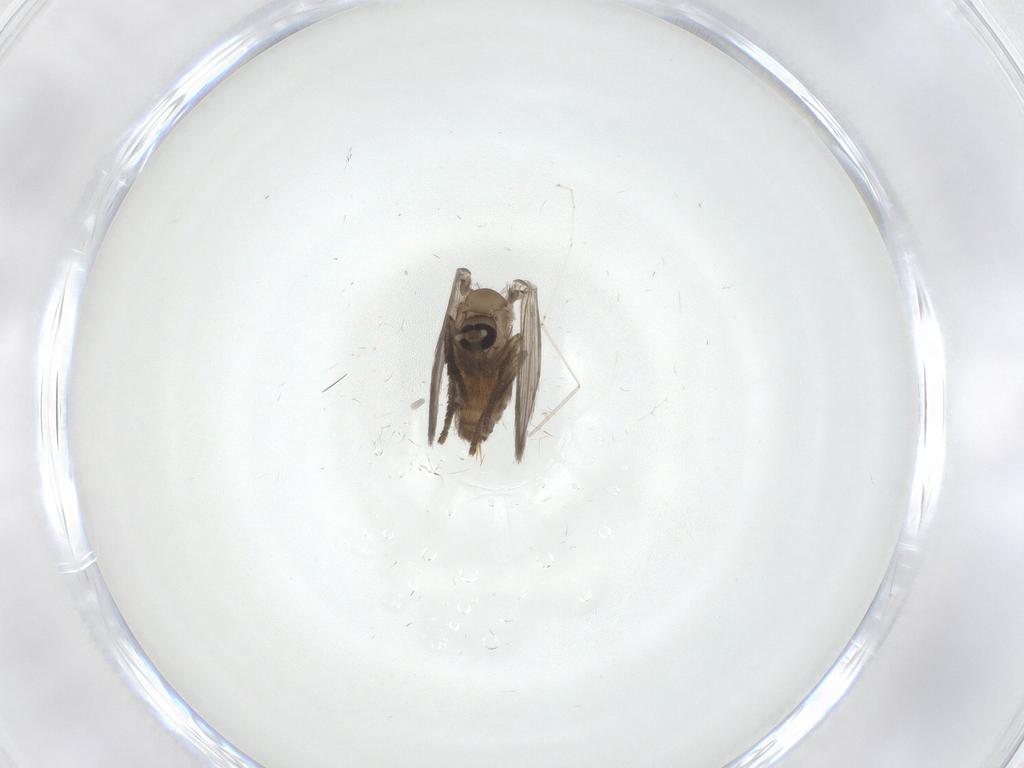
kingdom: Animalia
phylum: Arthropoda
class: Insecta
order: Diptera
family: Psychodidae
